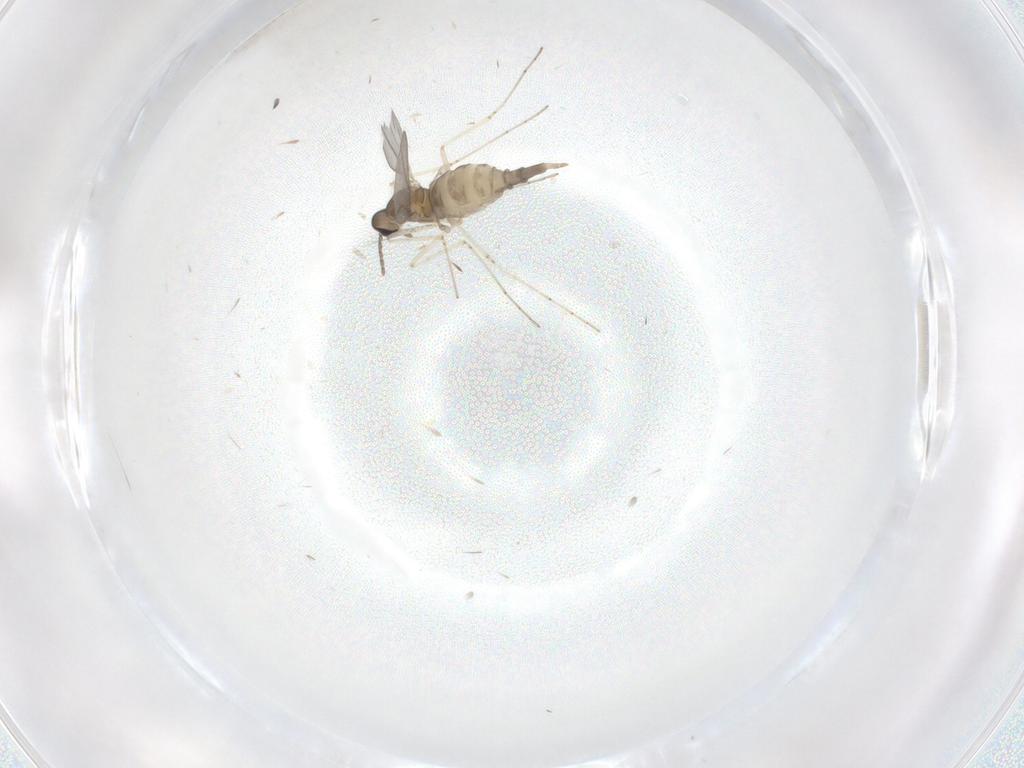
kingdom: Animalia
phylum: Arthropoda
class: Insecta
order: Diptera
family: Cecidomyiidae
